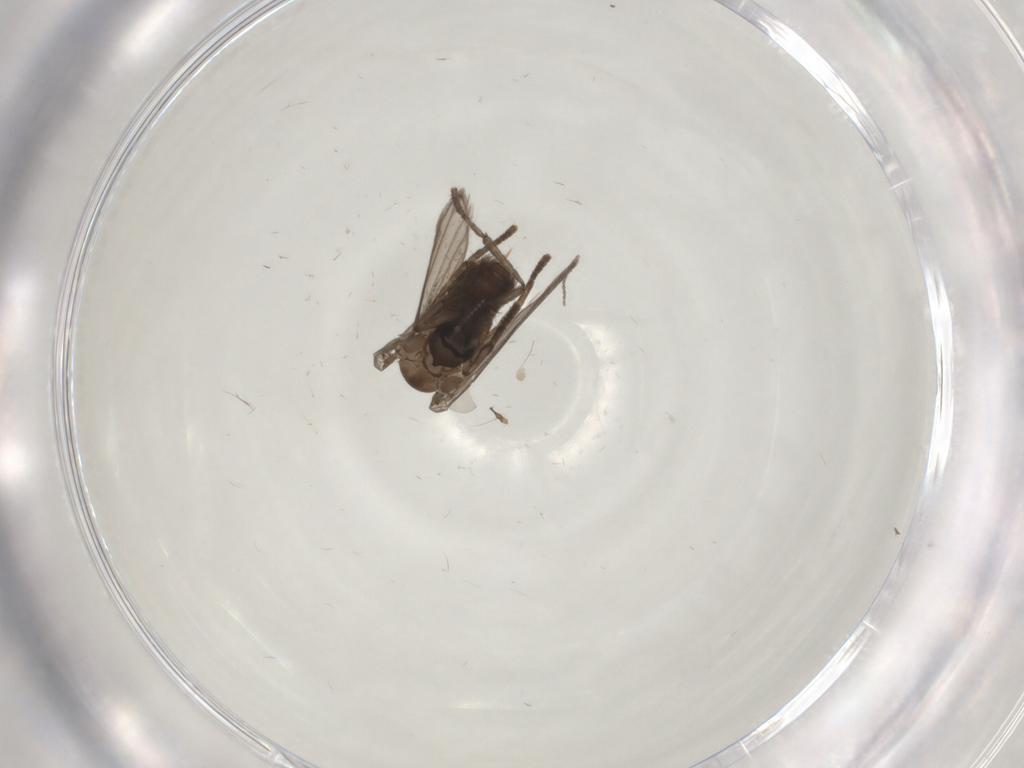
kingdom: Animalia
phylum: Arthropoda
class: Insecta
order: Diptera
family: Psychodidae
